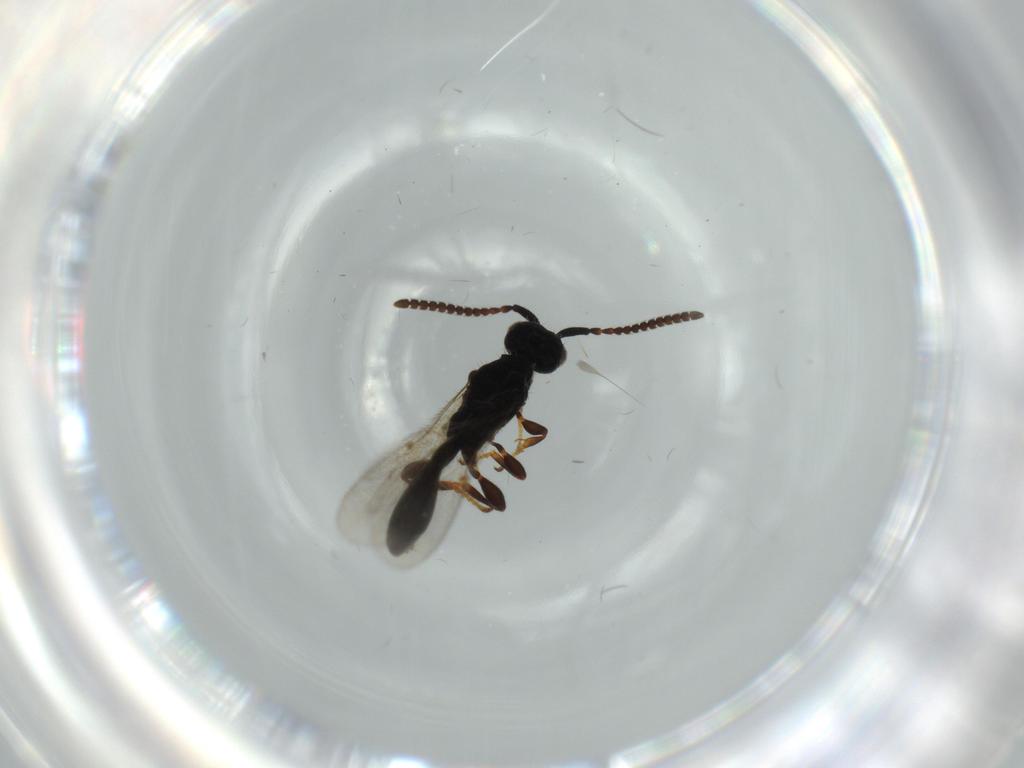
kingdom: Animalia
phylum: Arthropoda
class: Insecta
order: Hymenoptera
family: Diapriidae
